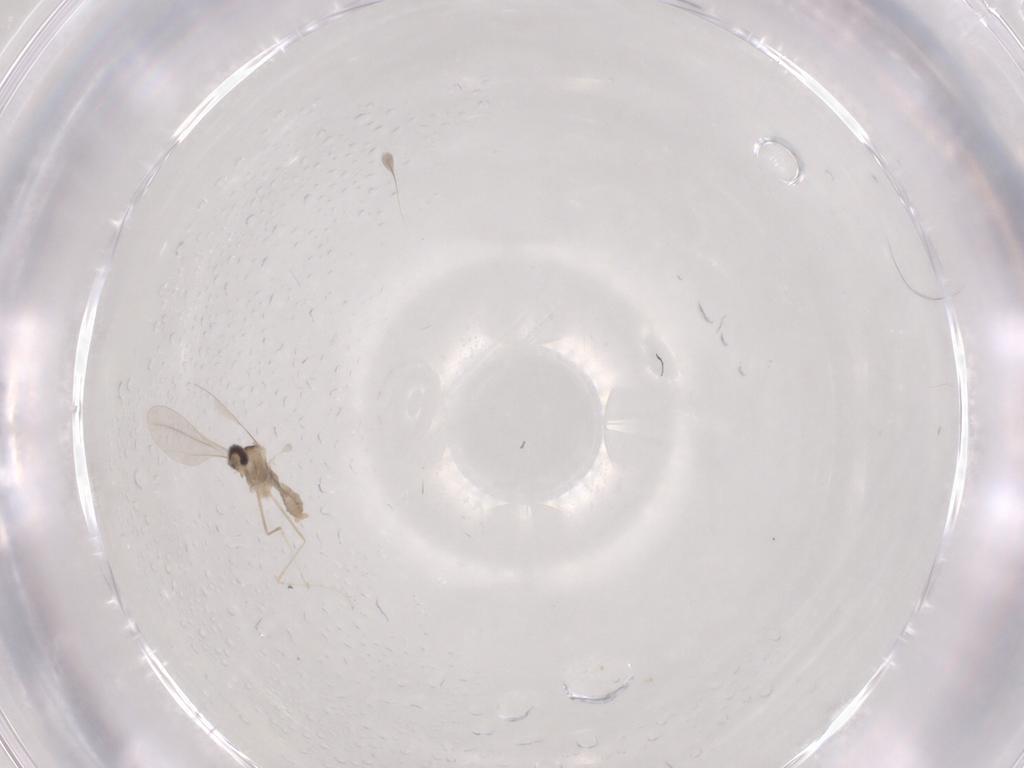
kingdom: Animalia
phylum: Arthropoda
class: Insecta
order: Diptera
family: Cecidomyiidae
